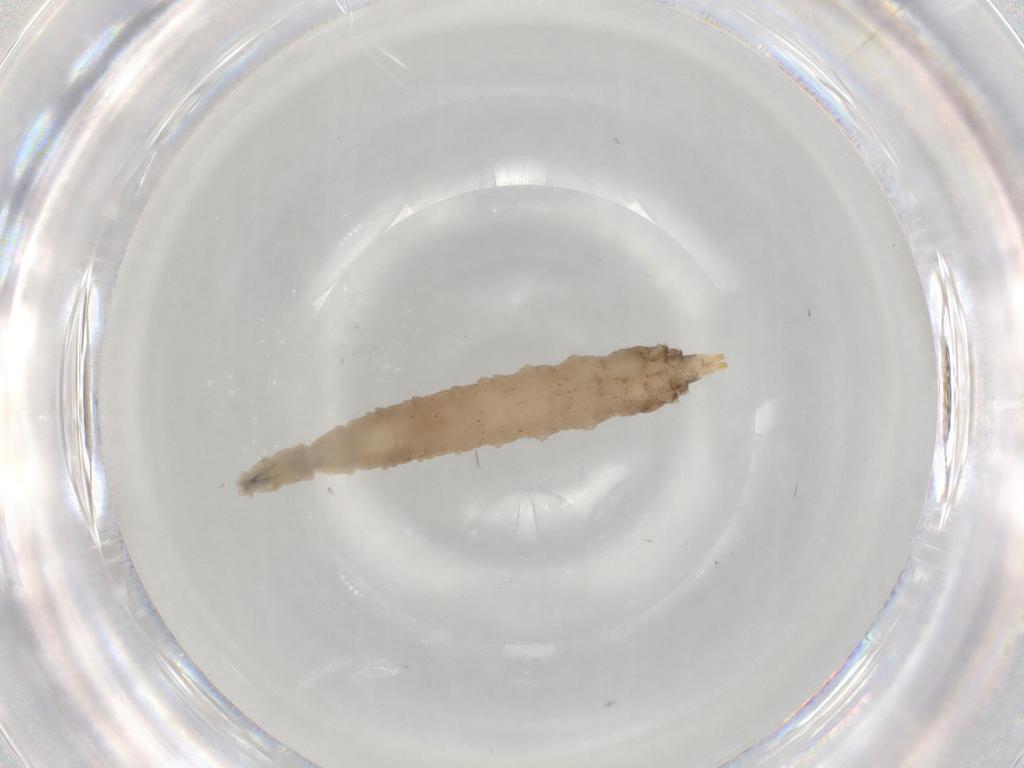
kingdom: Animalia
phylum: Arthropoda
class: Insecta
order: Diptera
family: Drosophilidae
